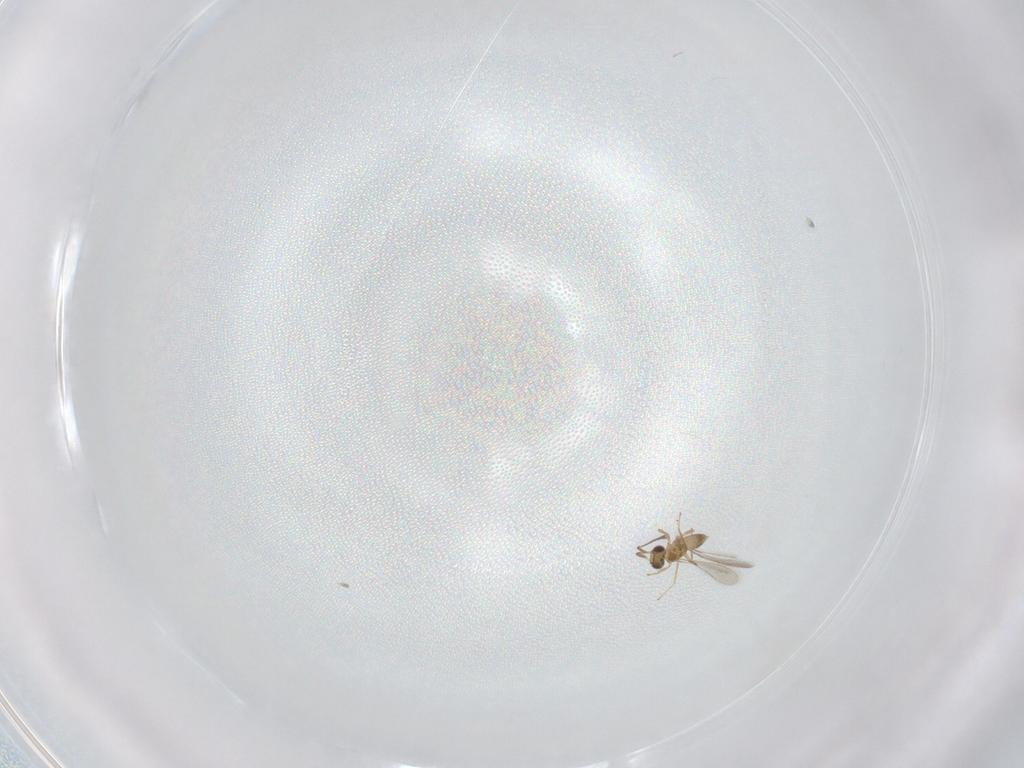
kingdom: Animalia
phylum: Arthropoda
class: Insecta
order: Hymenoptera
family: Mymaridae
